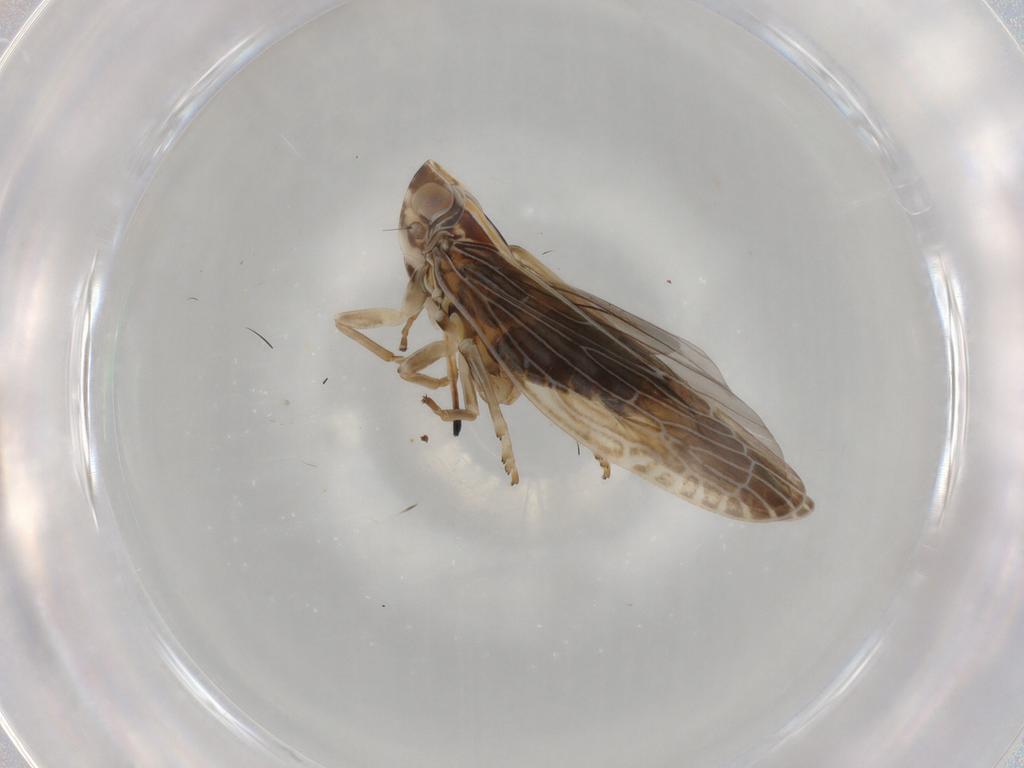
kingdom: Animalia
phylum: Arthropoda
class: Insecta
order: Hemiptera
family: Achilidae
